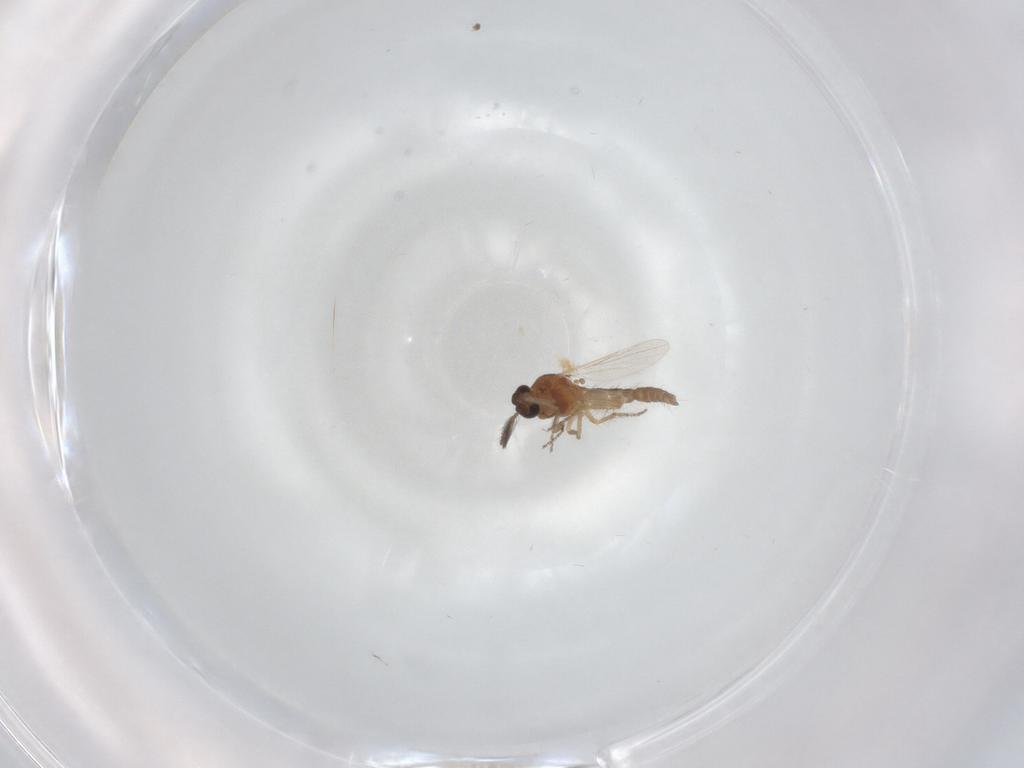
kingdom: Animalia
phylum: Arthropoda
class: Insecta
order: Diptera
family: Ceratopogonidae
